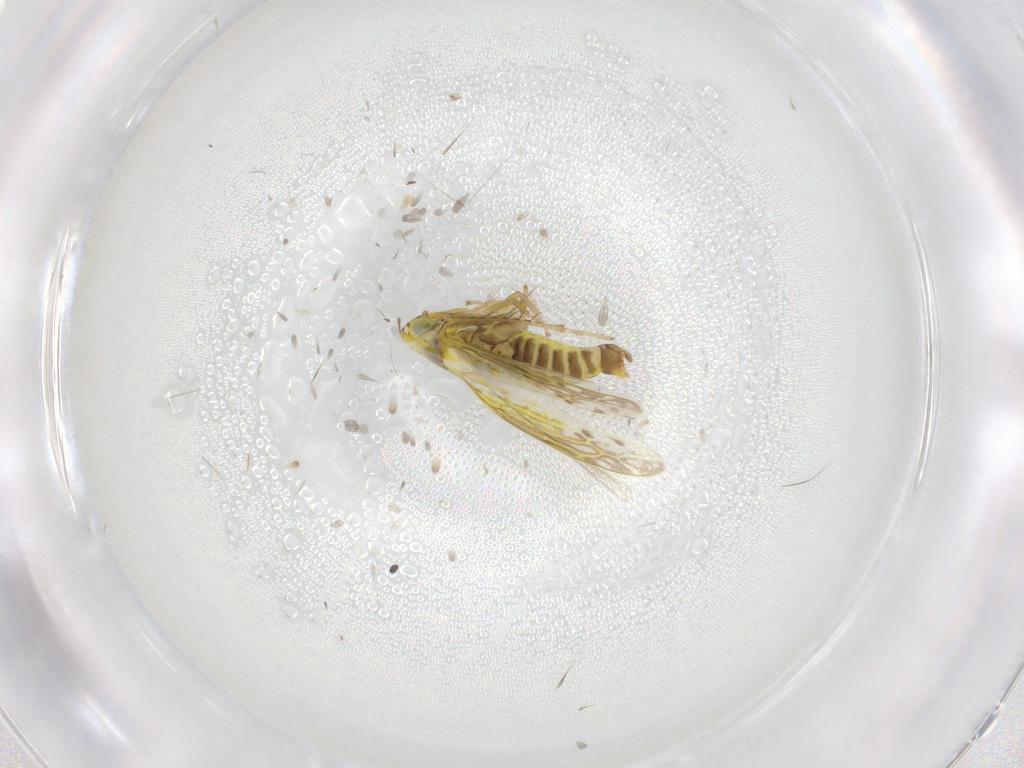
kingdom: Animalia
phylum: Arthropoda
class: Insecta
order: Hemiptera
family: Cicadellidae
